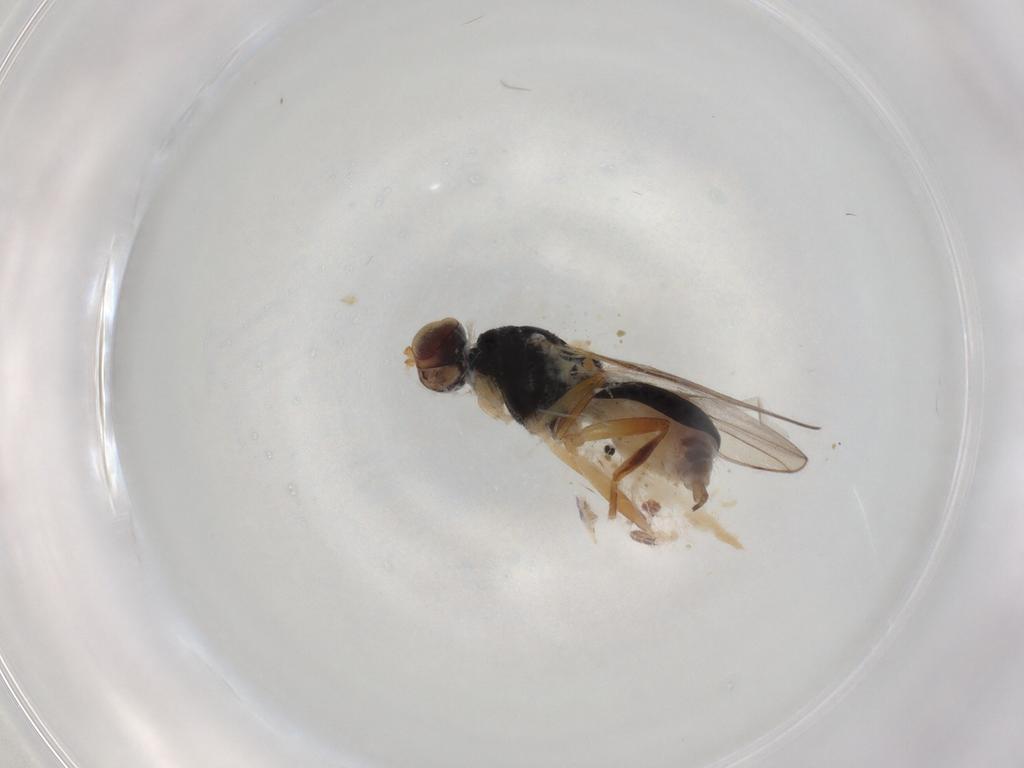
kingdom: Animalia
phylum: Arthropoda
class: Insecta
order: Diptera
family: Chloropidae
